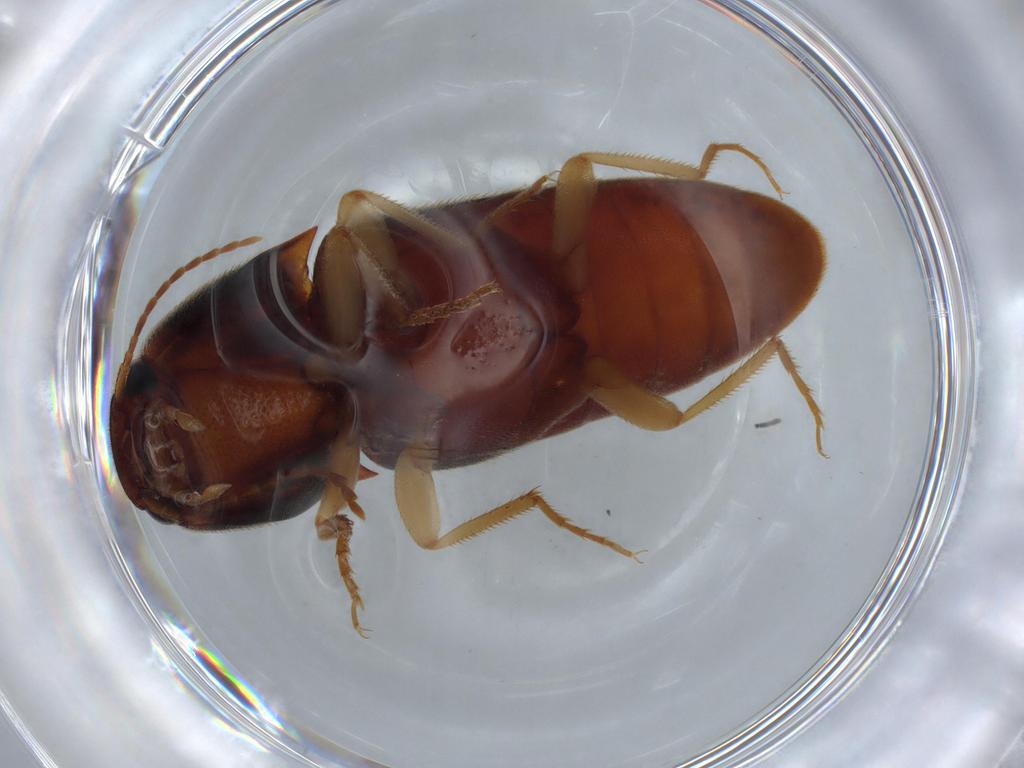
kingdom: Animalia
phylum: Arthropoda
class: Insecta
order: Coleoptera
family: Elateridae
